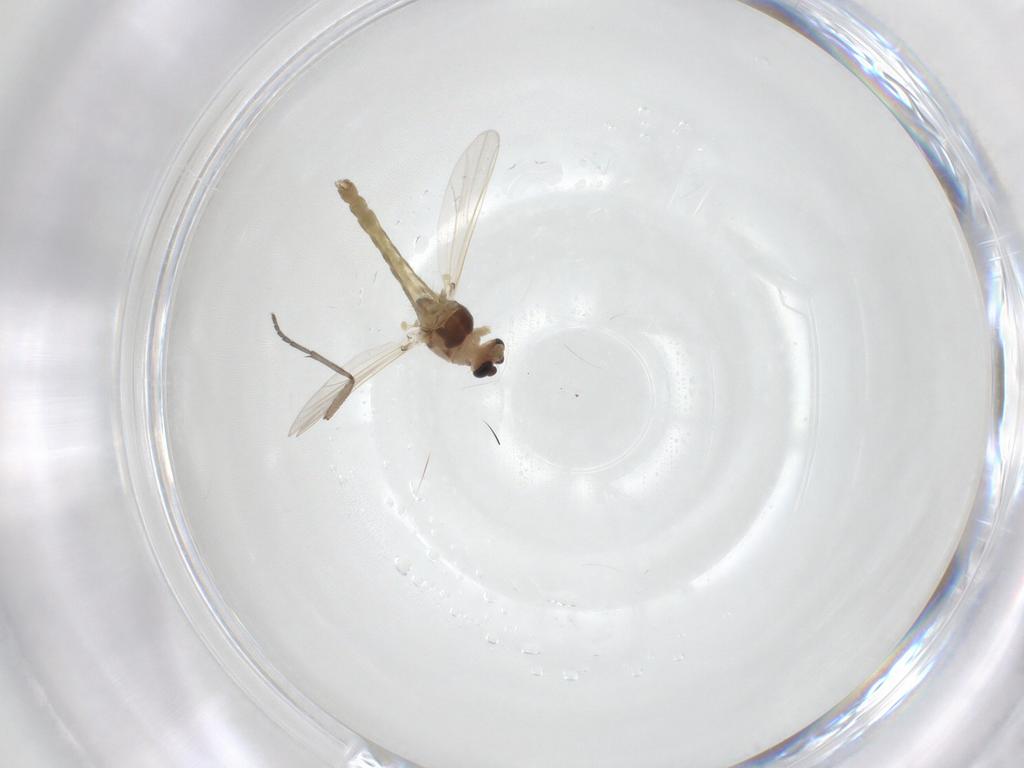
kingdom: Animalia
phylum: Arthropoda
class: Insecta
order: Diptera
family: Chironomidae
